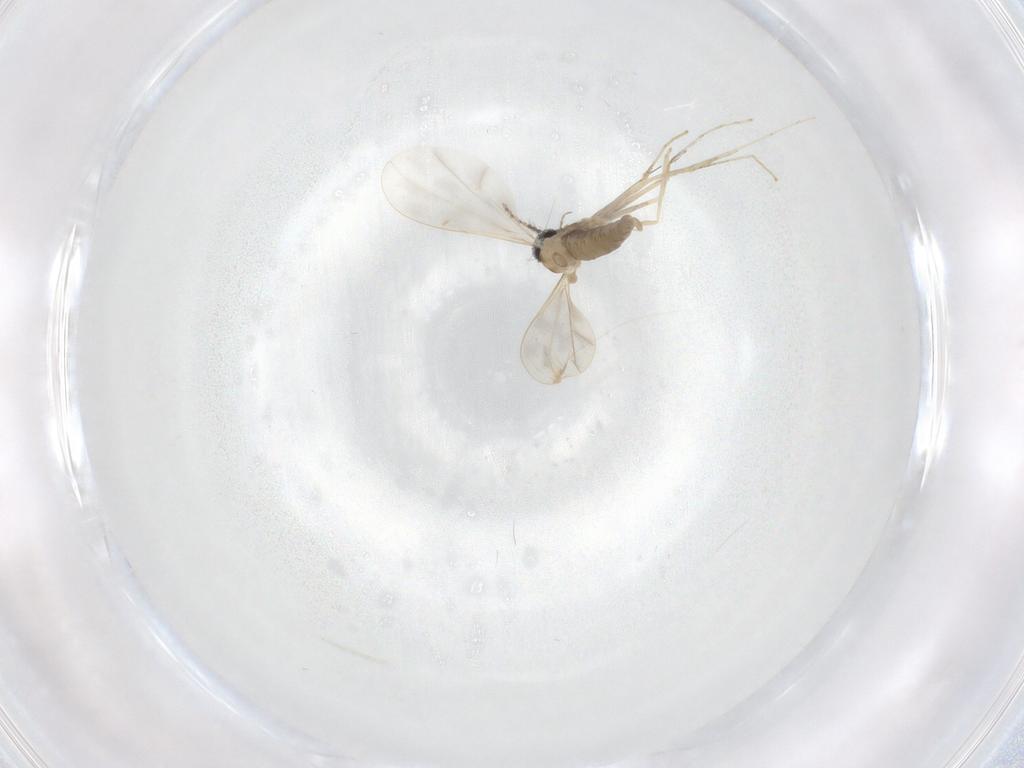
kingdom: Animalia
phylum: Arthropoda
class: Insecta
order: Diptera
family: Cecidomyiidae
